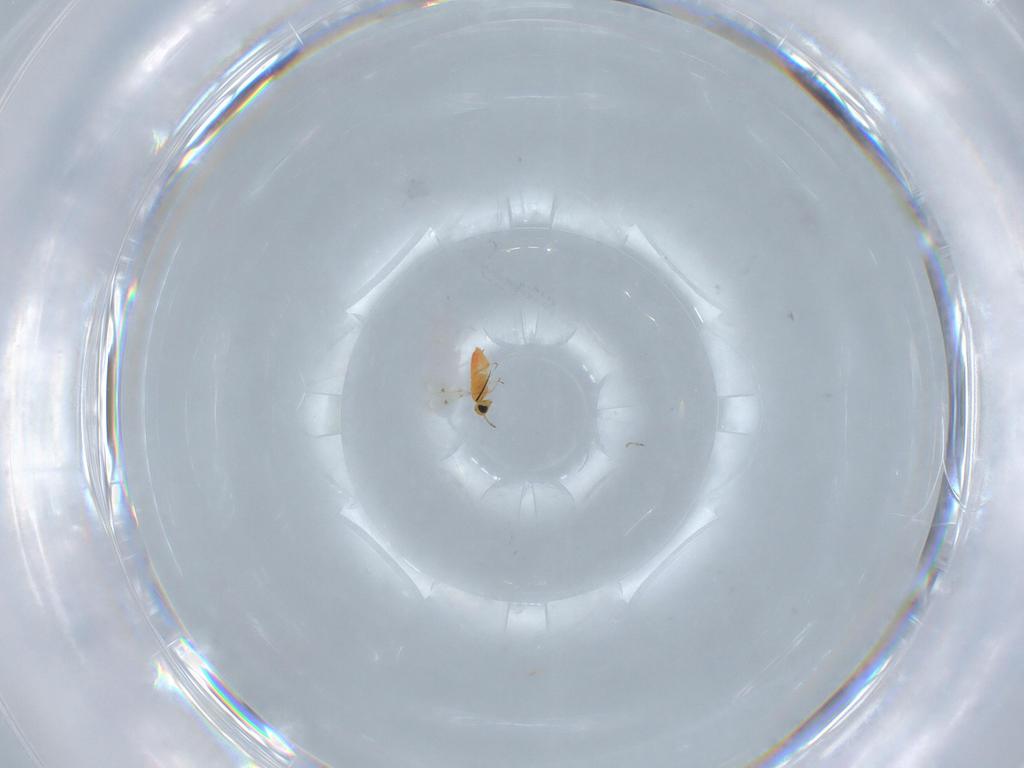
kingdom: Animalia
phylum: Arthropoda
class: Insecta
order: Hymenoptera
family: Trichogrammatidae
